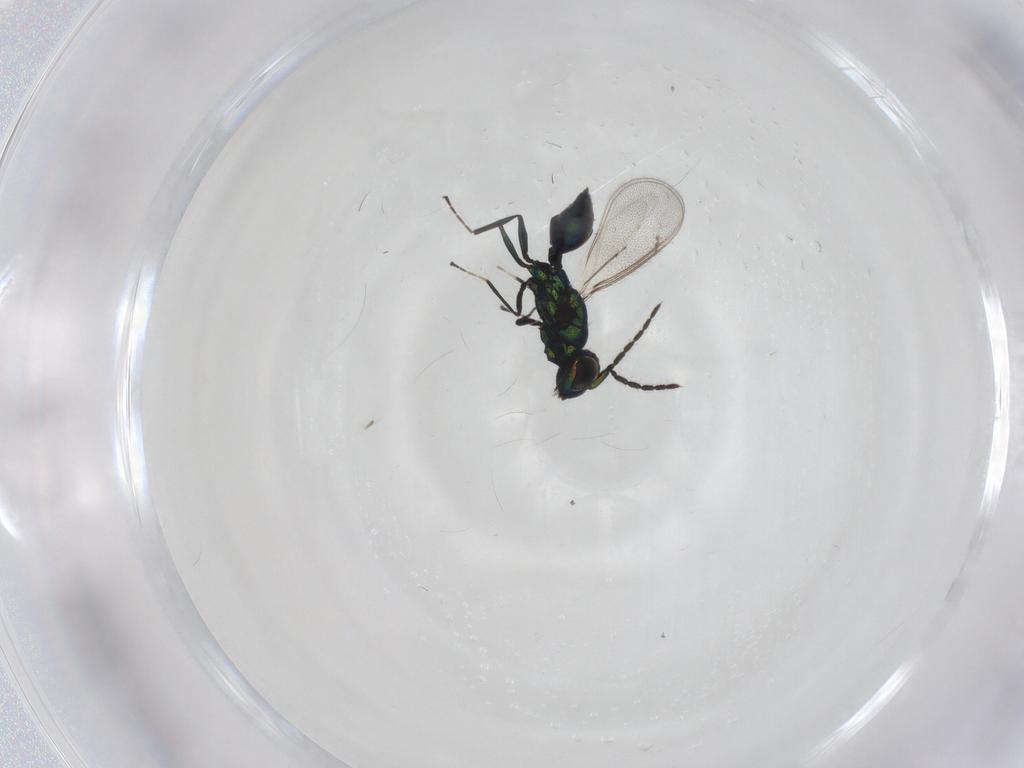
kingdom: Animalia
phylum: Arthropoda
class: Insecta
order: Hymenoptera
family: Eulophidae
